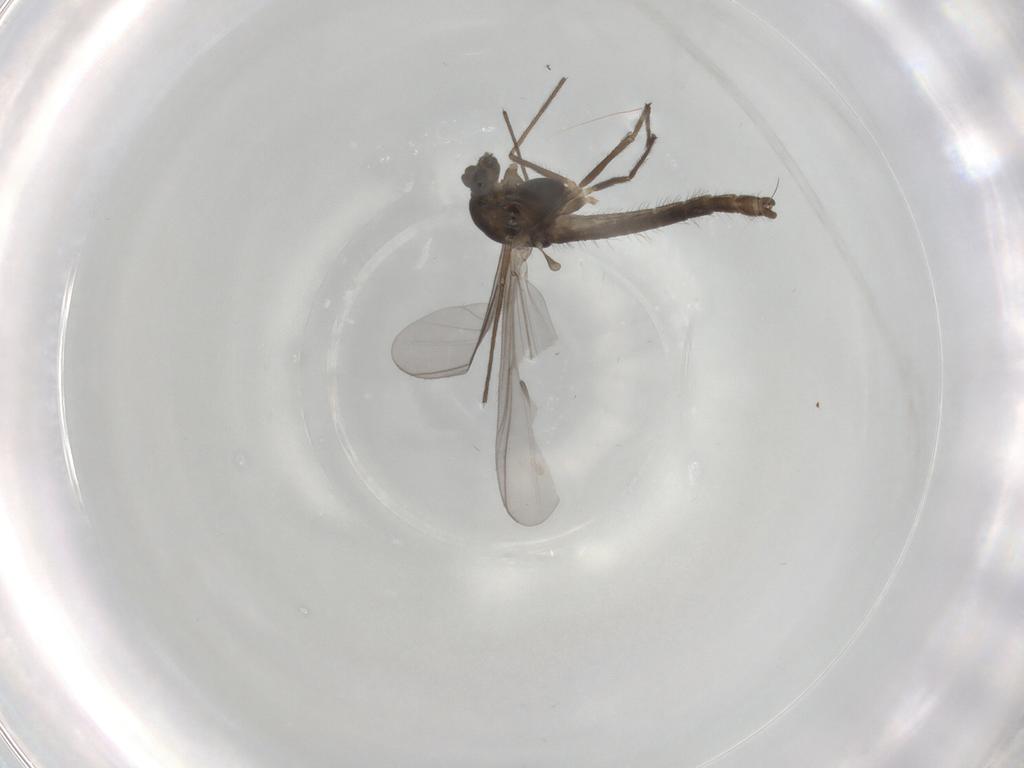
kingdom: Animalia
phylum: Arthropoda
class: Insecta
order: Diptera
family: Chironomidae
